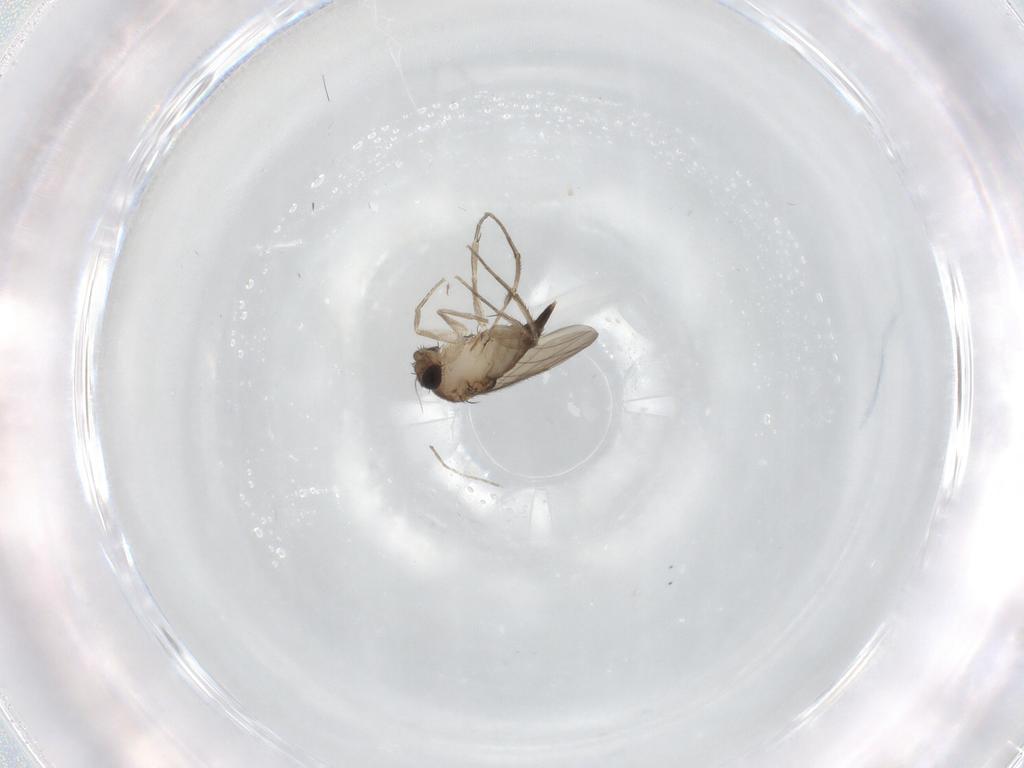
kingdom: Animalia
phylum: Arthropoda
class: Insecta
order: Diptera
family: Phoridae
